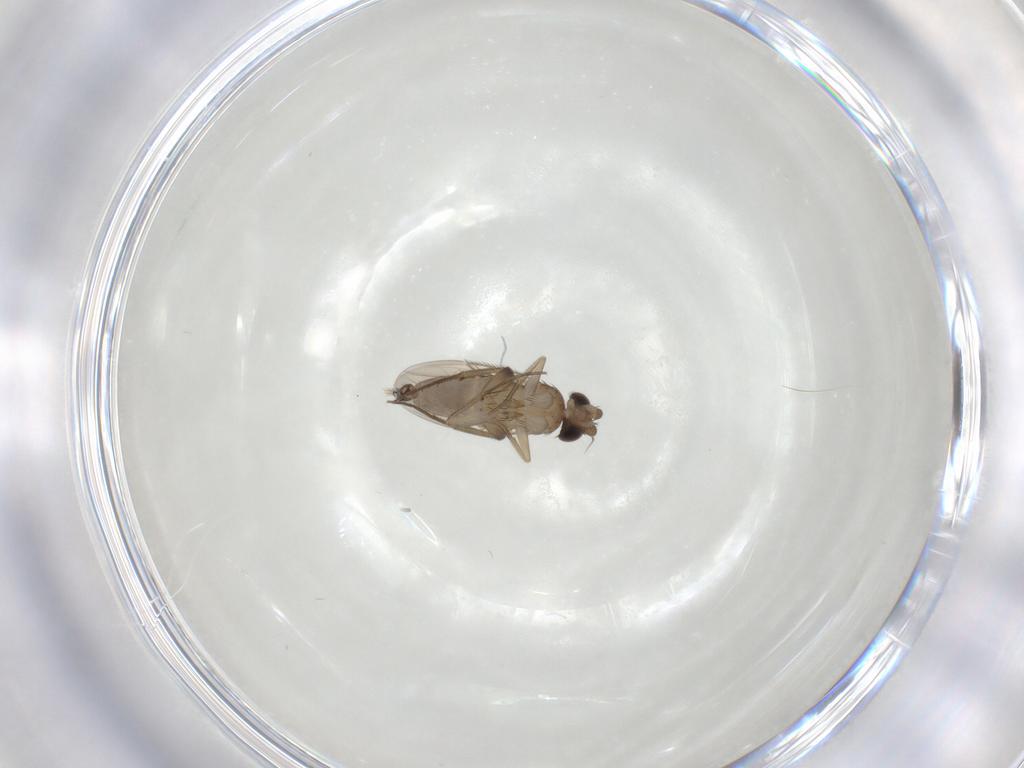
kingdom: Animalia
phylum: Arthropoda
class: Insecta
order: Diptera
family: Phoridae
